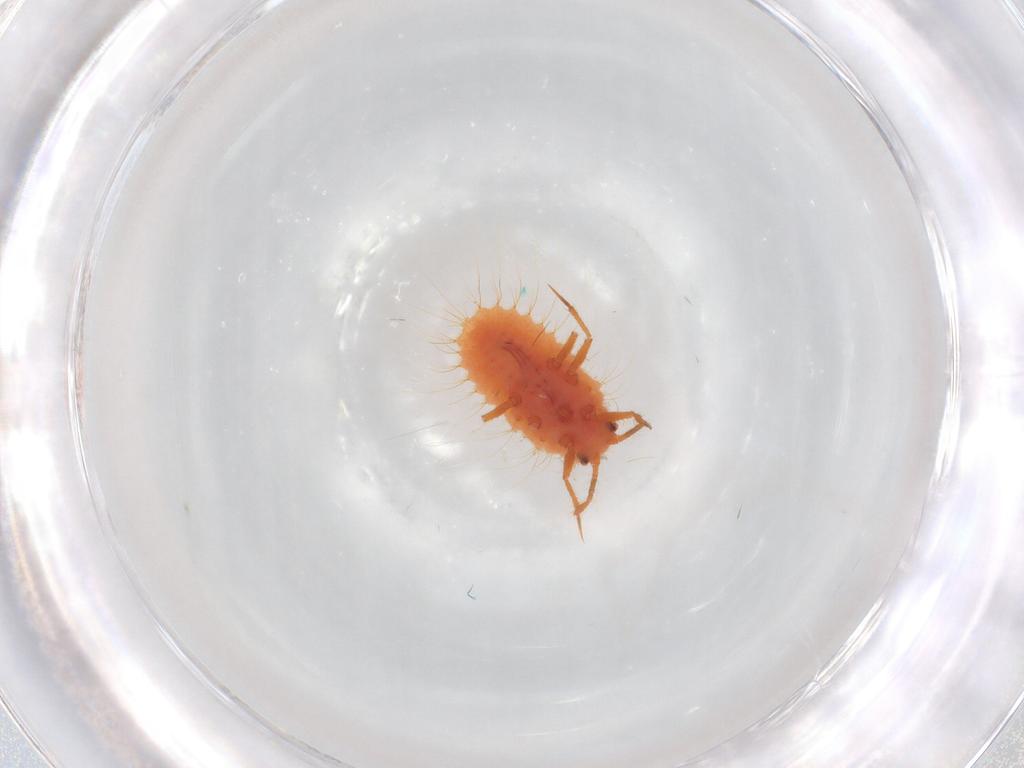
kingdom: Animalia
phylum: Arthropoda
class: Insecta
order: Hemiptera
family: Coccoidea_incertae_sedis
